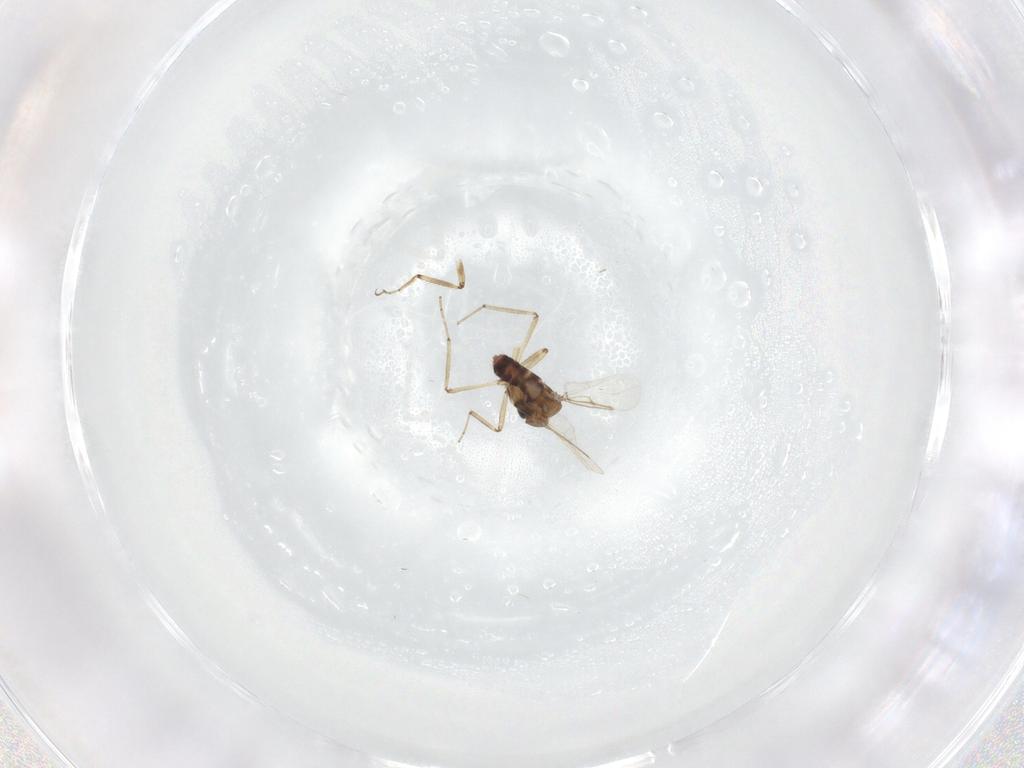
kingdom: Animalia
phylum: Arthropoda
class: Insecta
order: Diptera
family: Ceratopogonidae
